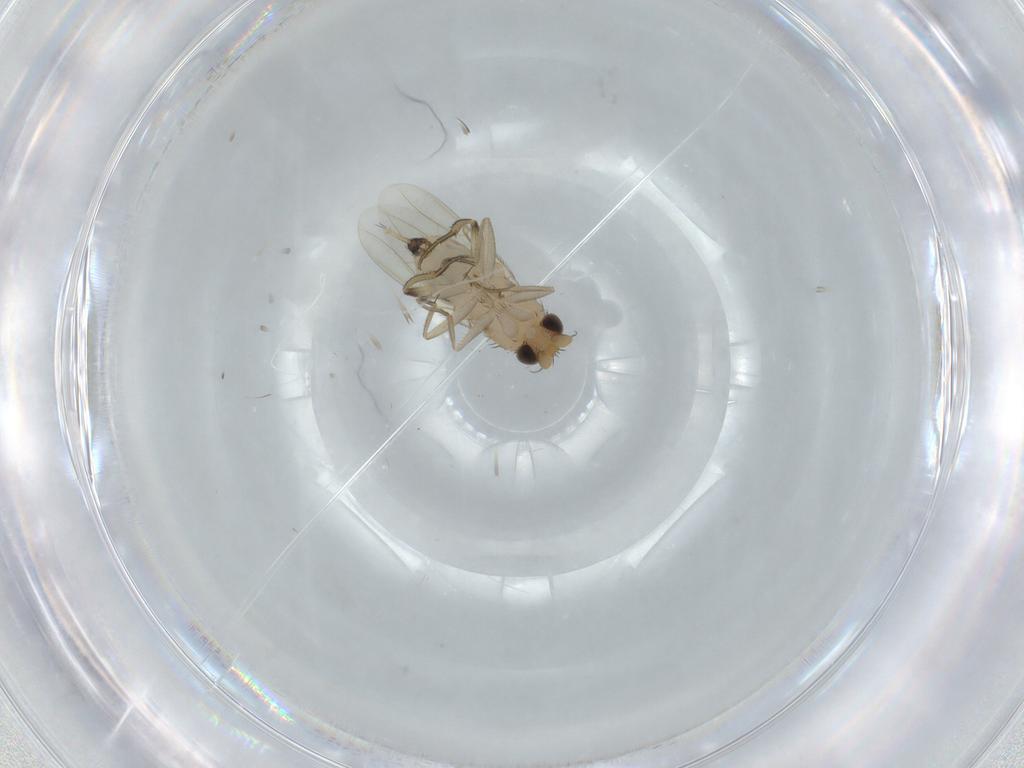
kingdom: Animalia
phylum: Arthropoda
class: Insecta
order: Diptera
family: Phoridae
